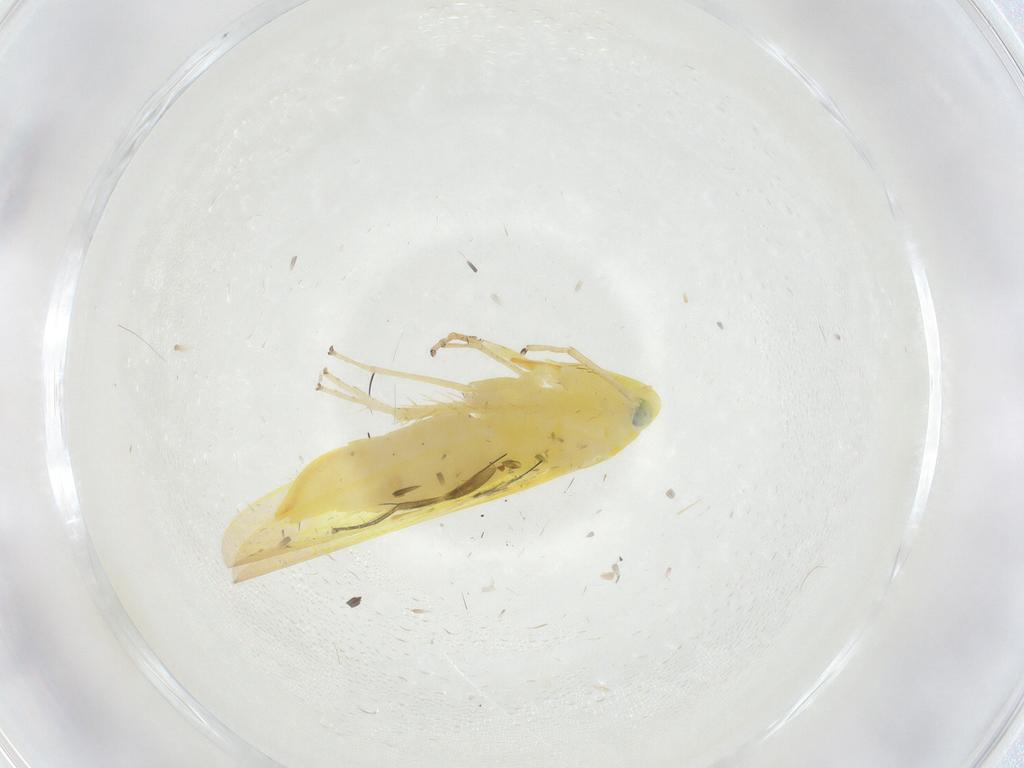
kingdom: Animalia
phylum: Arthropoda
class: Insecta
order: Hemiptera
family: Aphididae
